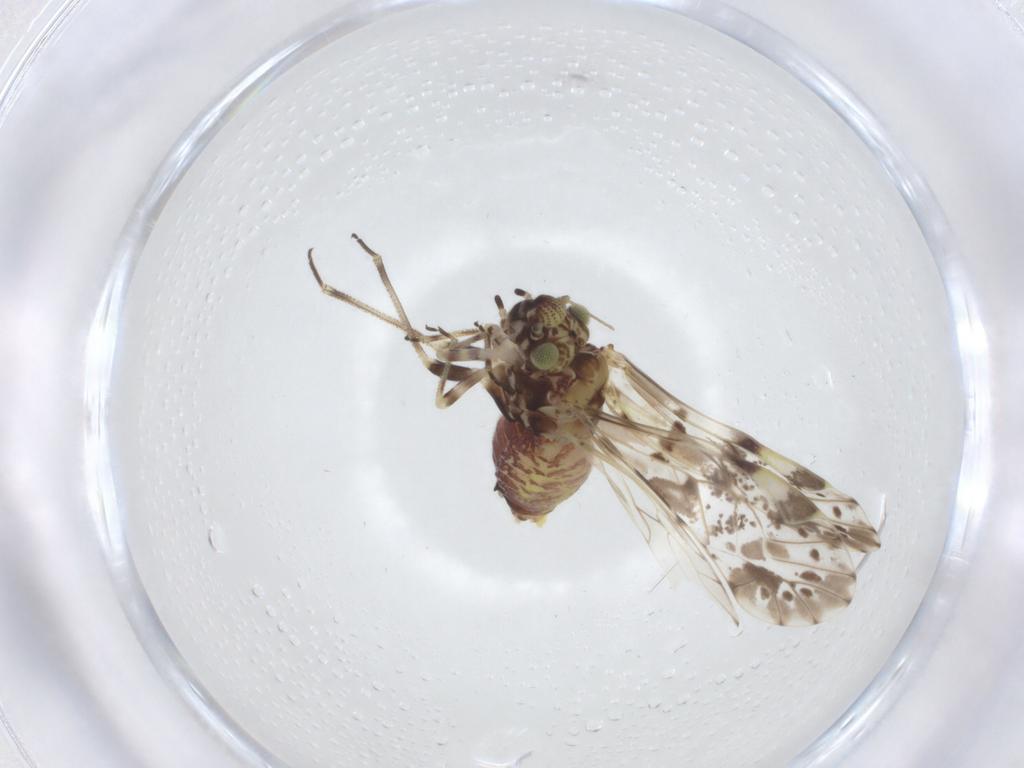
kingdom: Animalia
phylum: Arthropoda
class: Insecta
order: Psocodea
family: Psocidae
